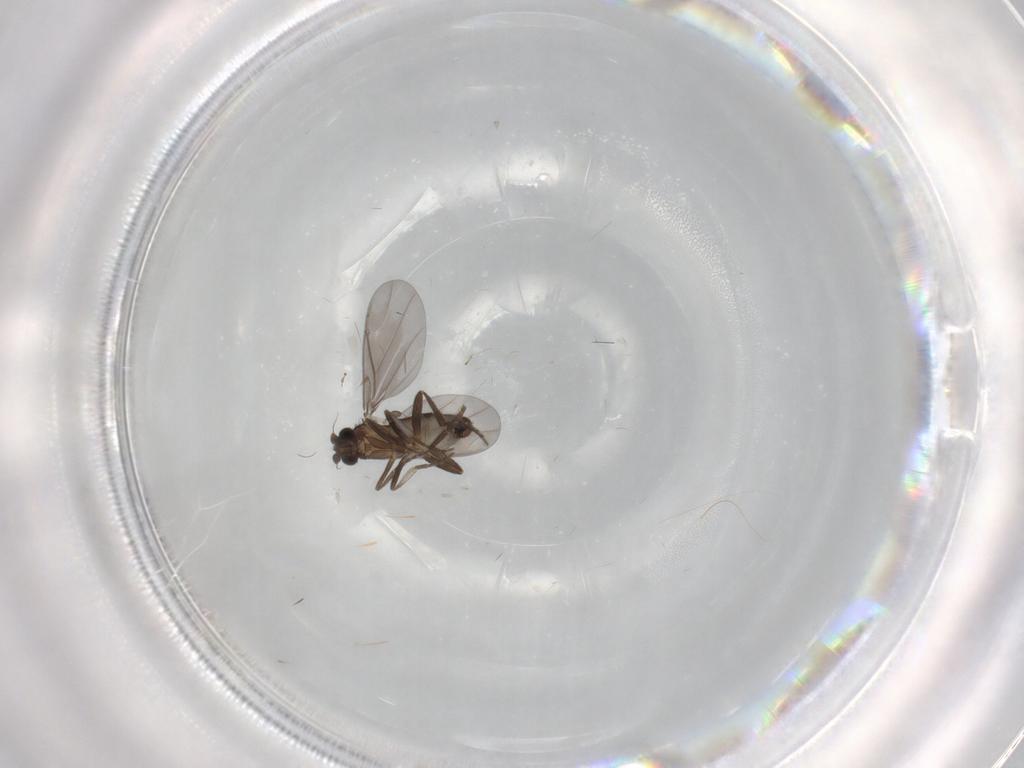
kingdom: Animalia
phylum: Arthropoda
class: Insecta
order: Diptera
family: Phoridae
